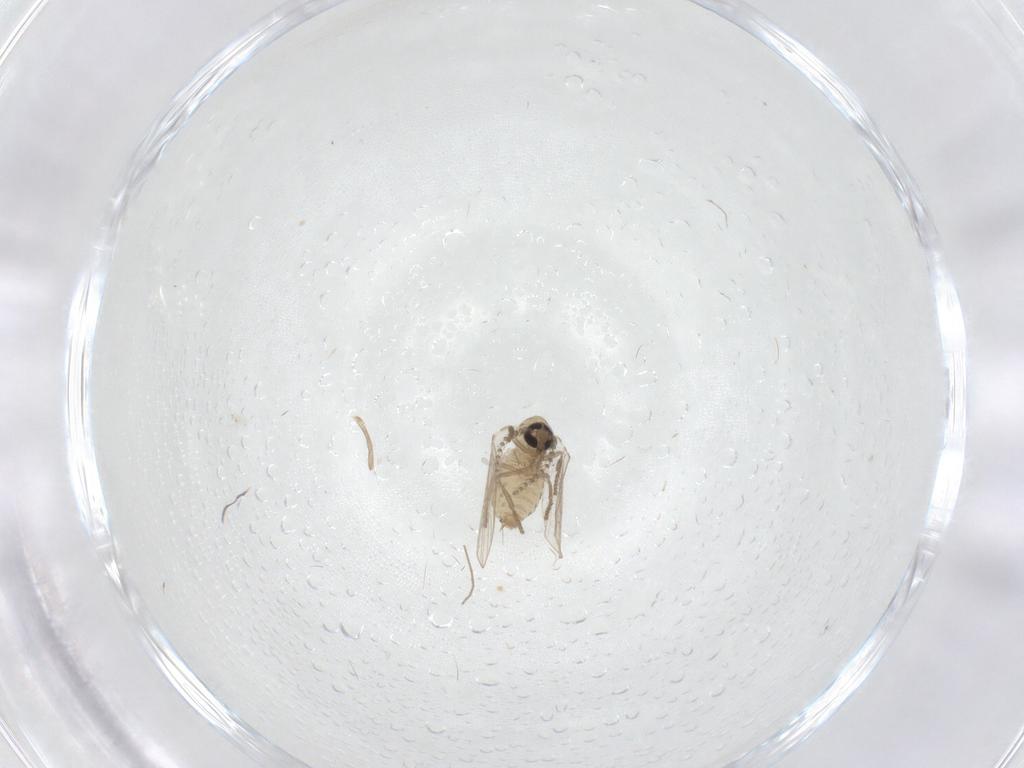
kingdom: Animalia
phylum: Arthropoda
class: Insecta
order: Diptera
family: Psychodidae
